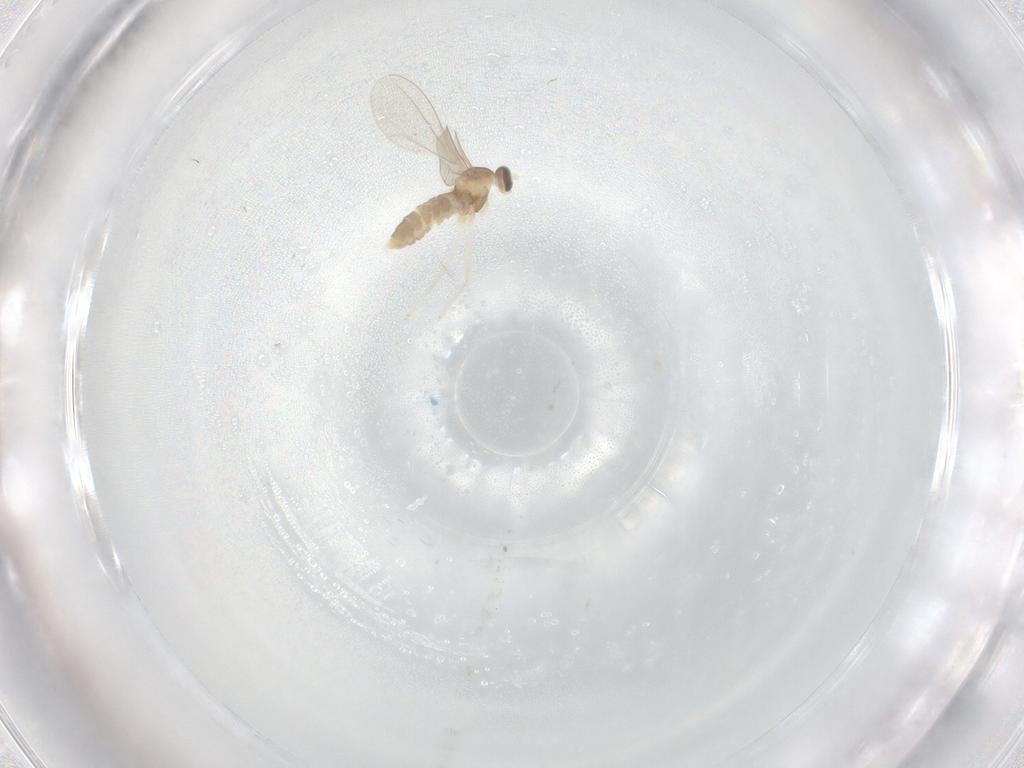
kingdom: Animalia
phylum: Arthropoda
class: Insecta
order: Diptera
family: Cecidomyiidae
